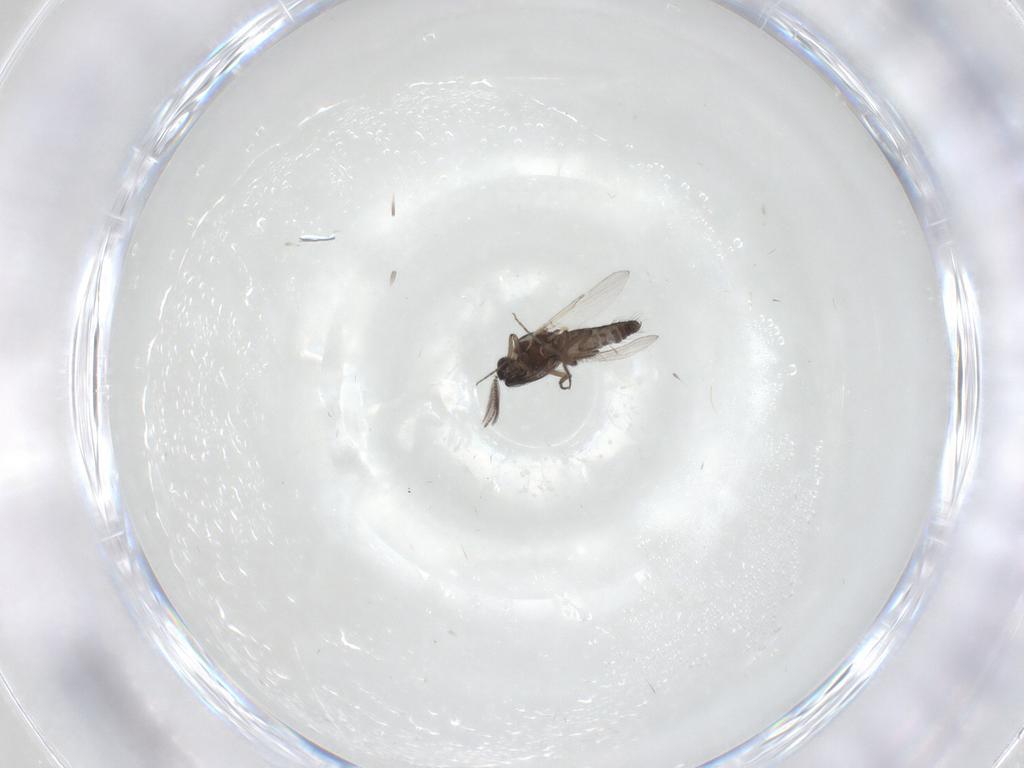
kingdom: Animalia
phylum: Arthropoda
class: Insecta
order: Diptera
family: Ceratopogonidae
